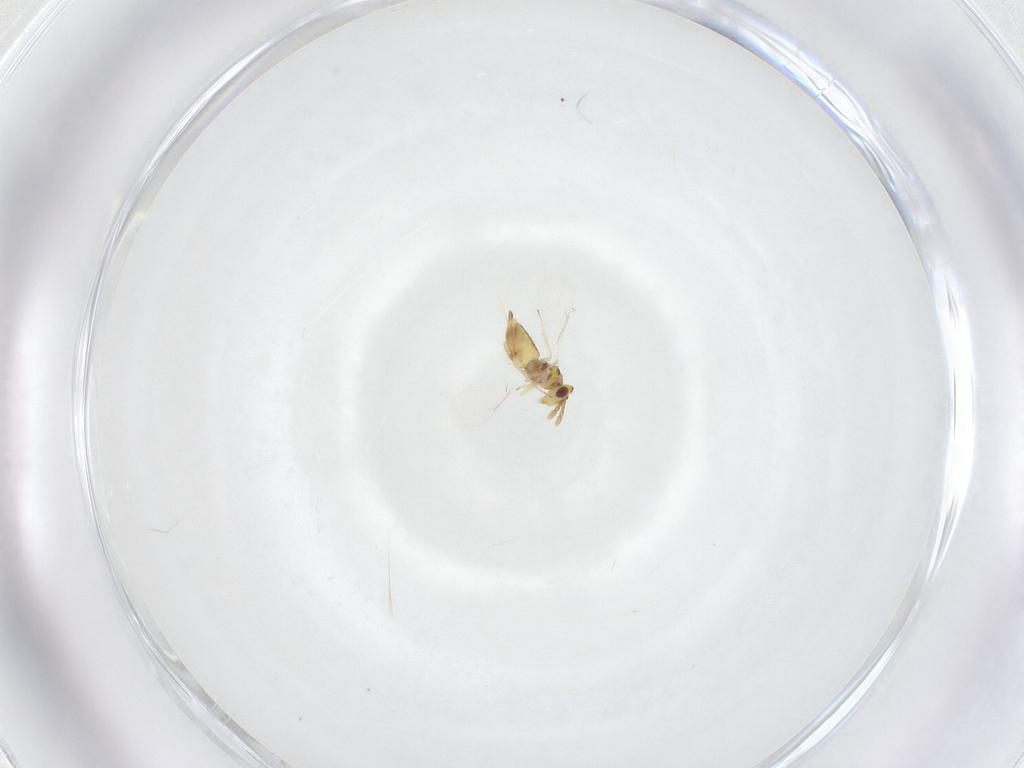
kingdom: Animalia
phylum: Arthropoda
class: Insecta
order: Hymenoptera
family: Eulophidae
